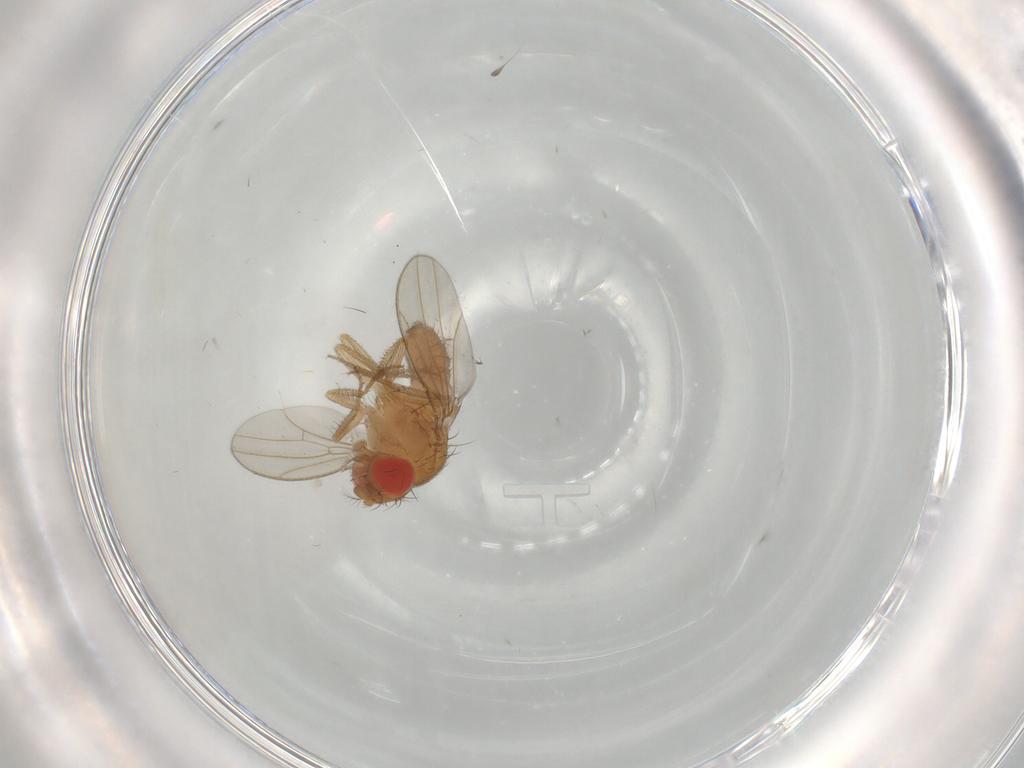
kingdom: Animalia
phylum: Arthropoda
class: Insecta
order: Diptera
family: Drosophilidae
